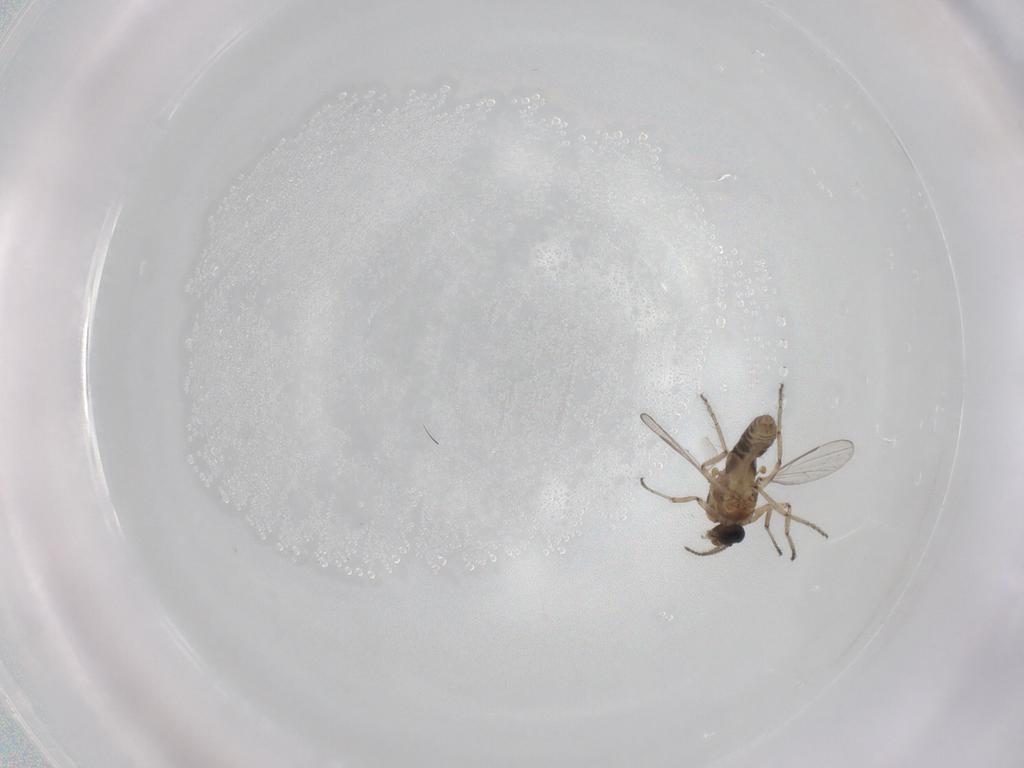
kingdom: Animalia
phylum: Arthropoda
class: Insecta
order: Diptera
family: Ceratopogonidae
